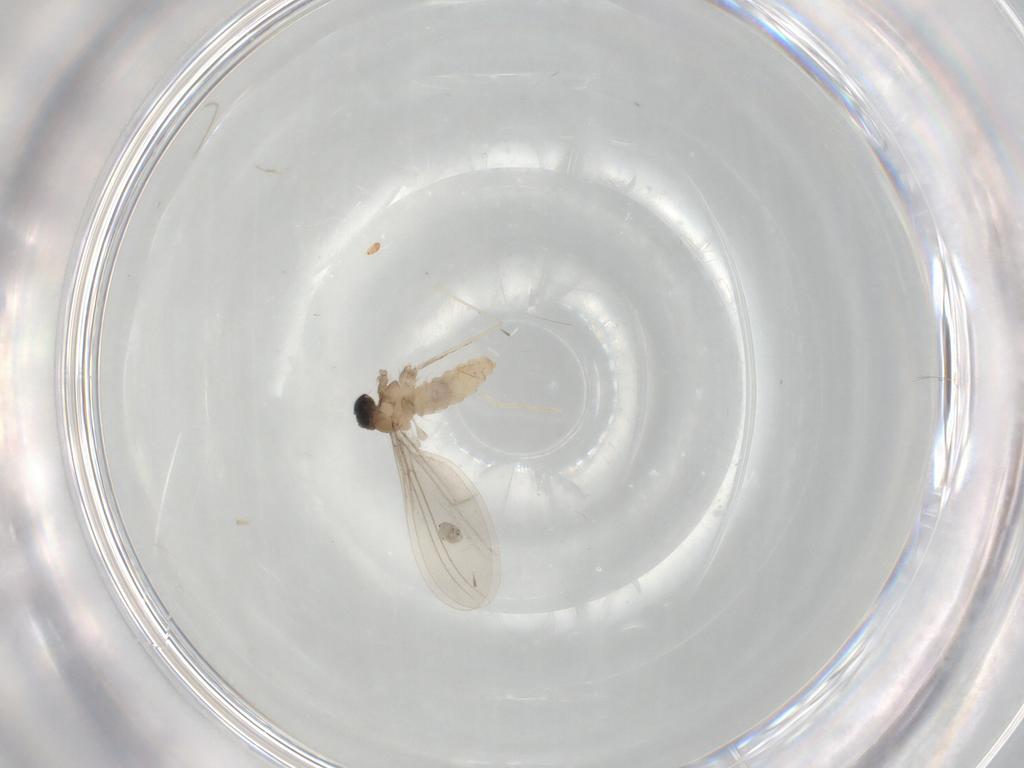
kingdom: Animalia
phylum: Arthropoda
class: Insecta
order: Diptera
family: Cecidomyiidae
